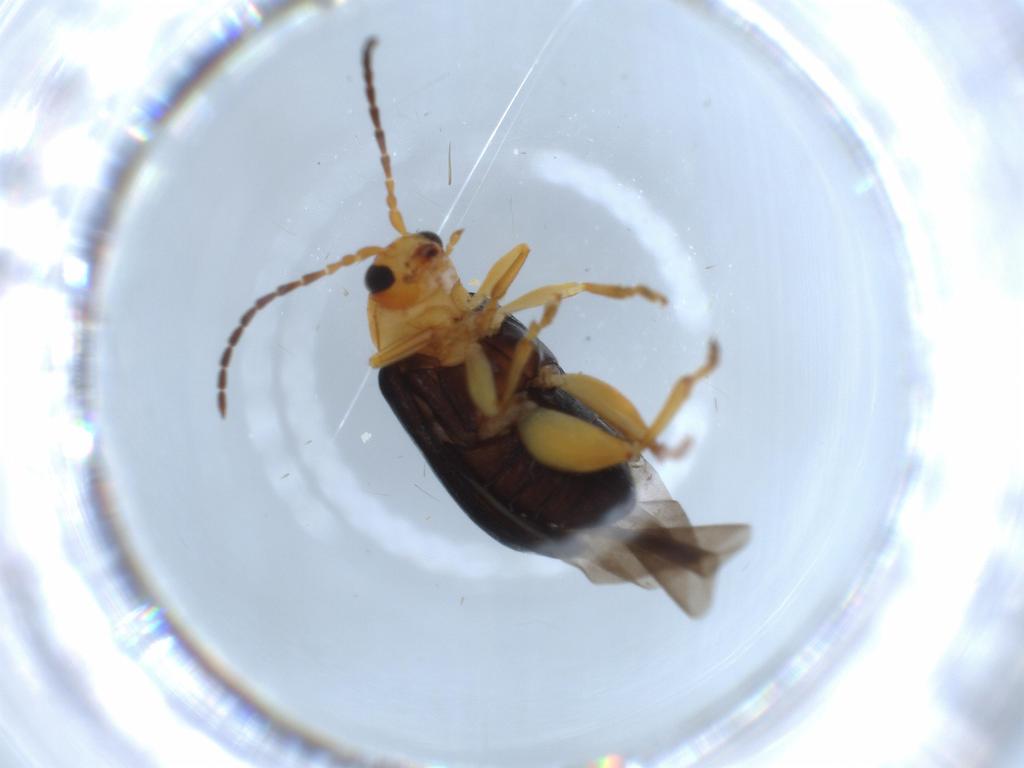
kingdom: Animalia
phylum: Arthropoda
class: Insecta
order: Coleoptera
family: Chrysomelidae
